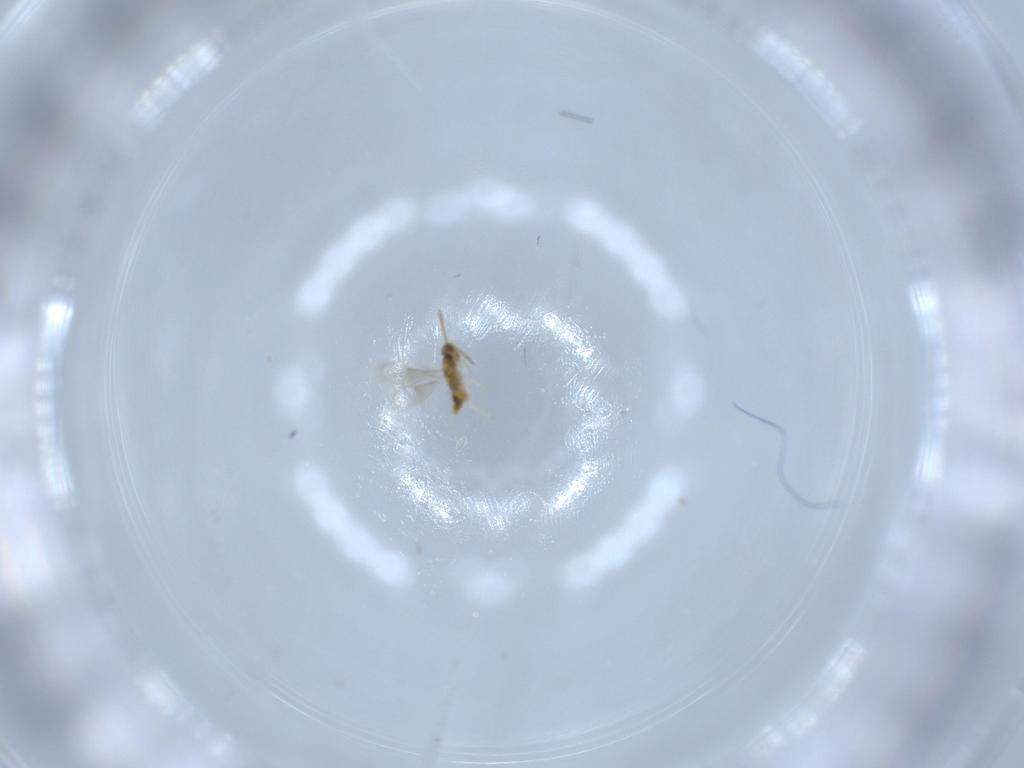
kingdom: Animalia
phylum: Arthropoda
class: Insecta
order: Hymenoptera
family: Aphelinidae
